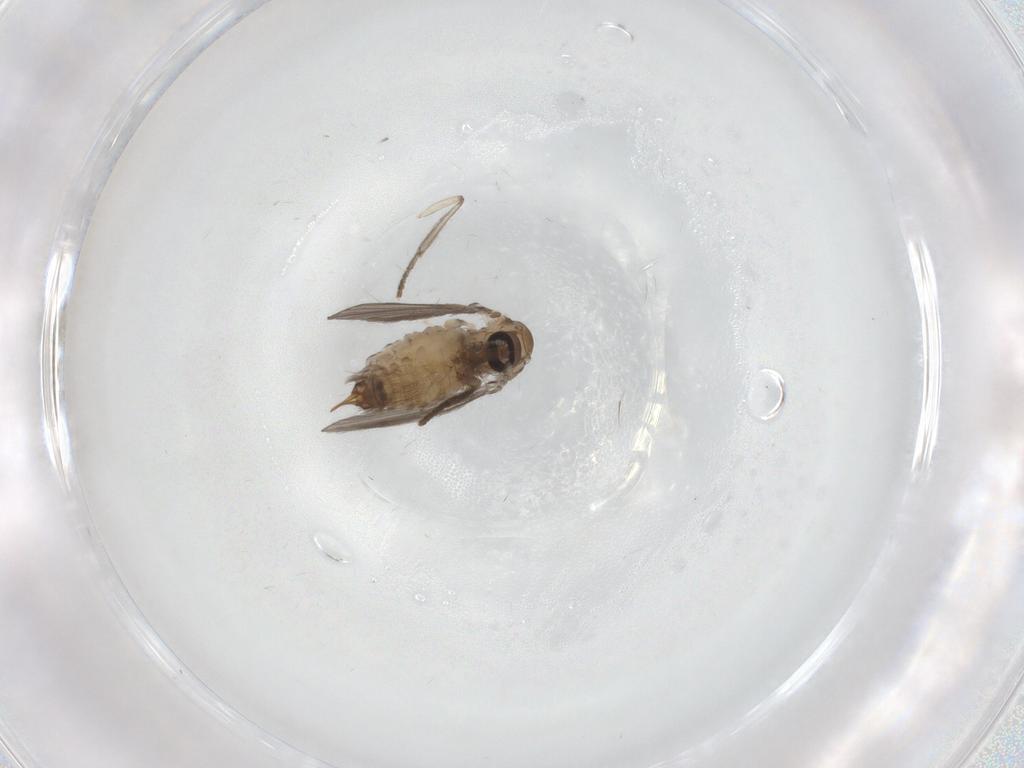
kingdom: Animalia
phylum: Arthropoda
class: Insecta
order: Diptera
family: Psychodidae
